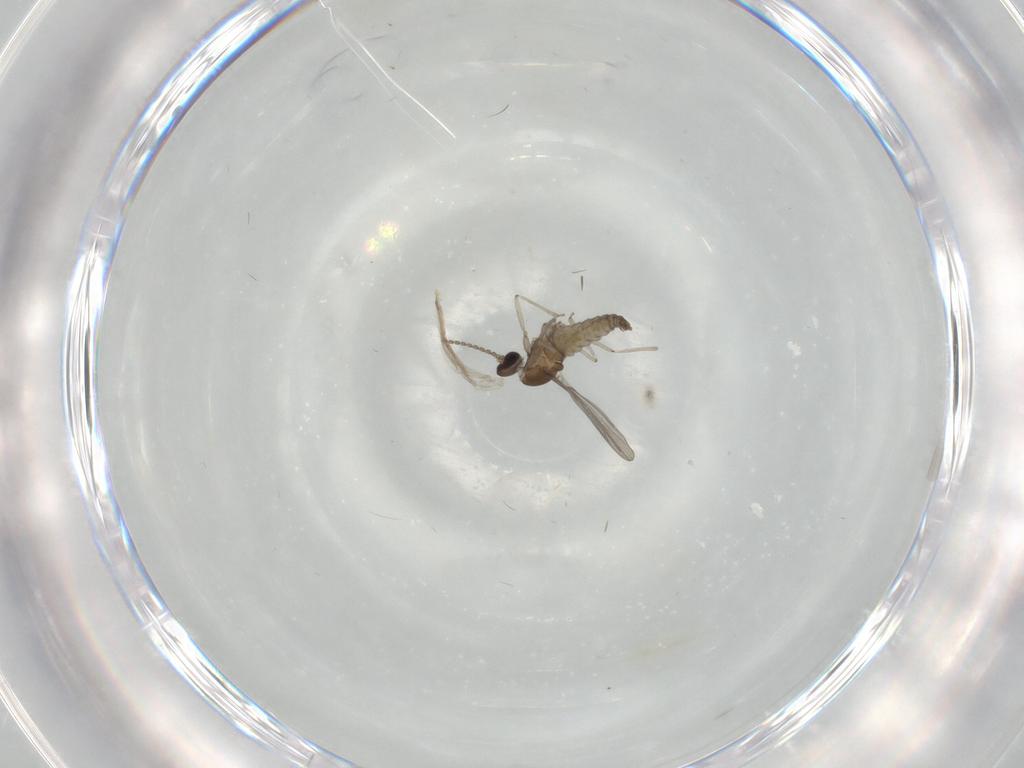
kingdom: Animalia
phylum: Arthropoda
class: Insecta
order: Diptera
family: Cecidomyiidae
